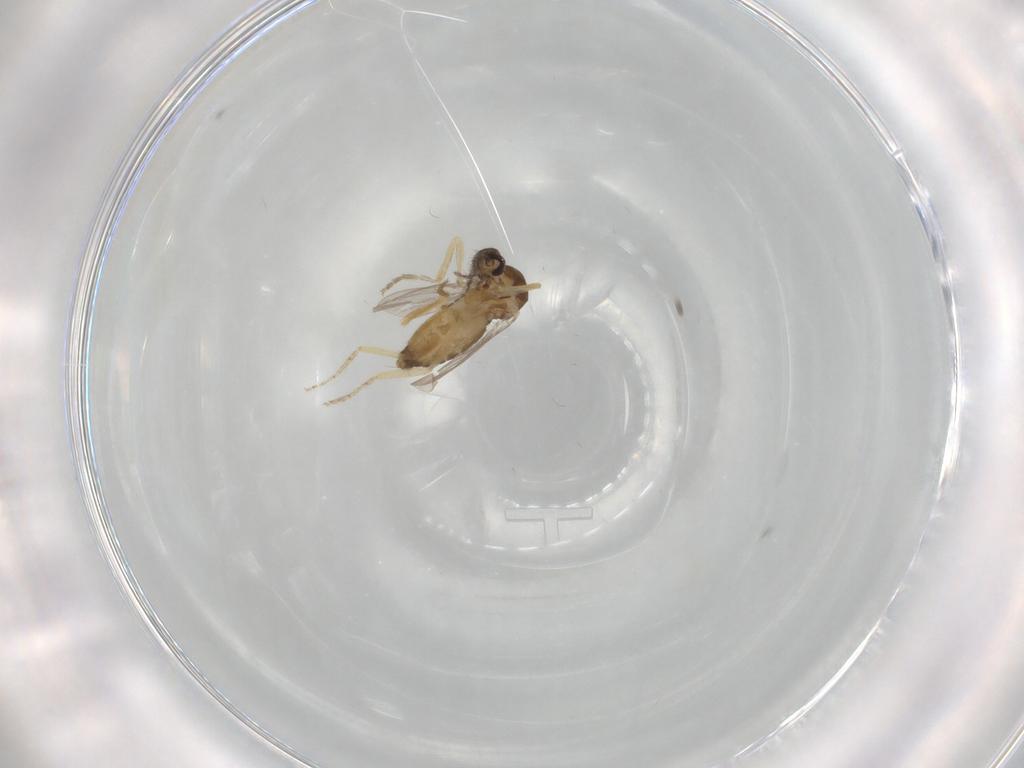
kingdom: Animalia
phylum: Arthropoda
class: Insecta
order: Diptera
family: Ceratopogonidae
